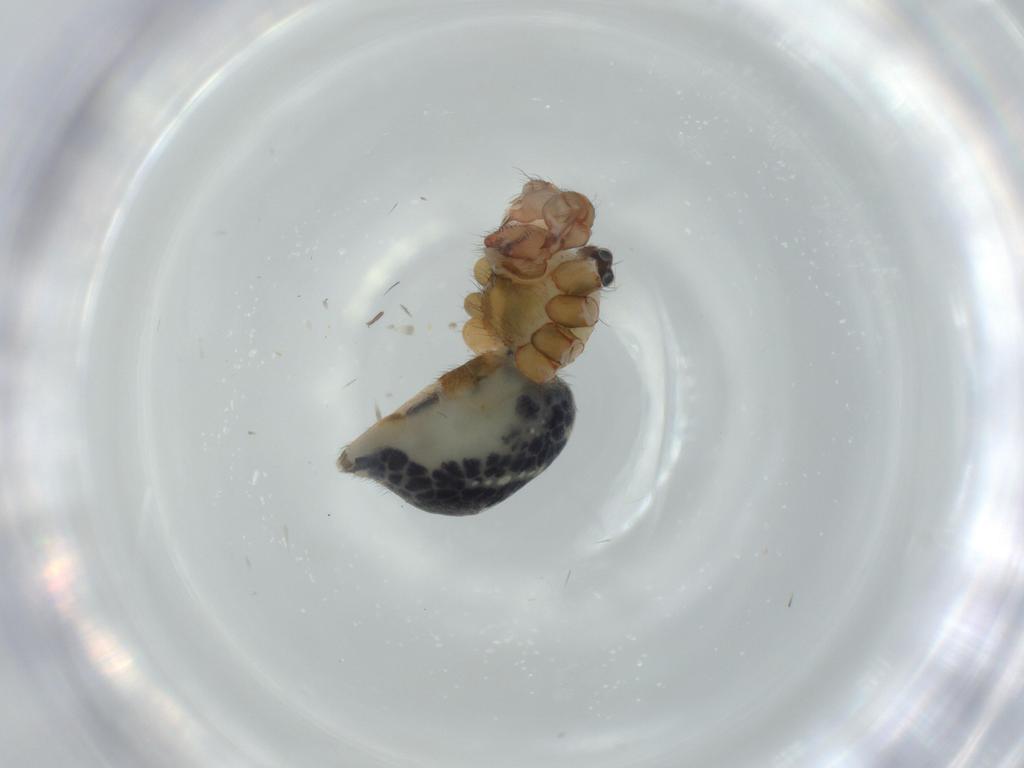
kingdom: Animalia
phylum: Arthropoda
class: Arachnida
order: Araneae
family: Pholcidae
